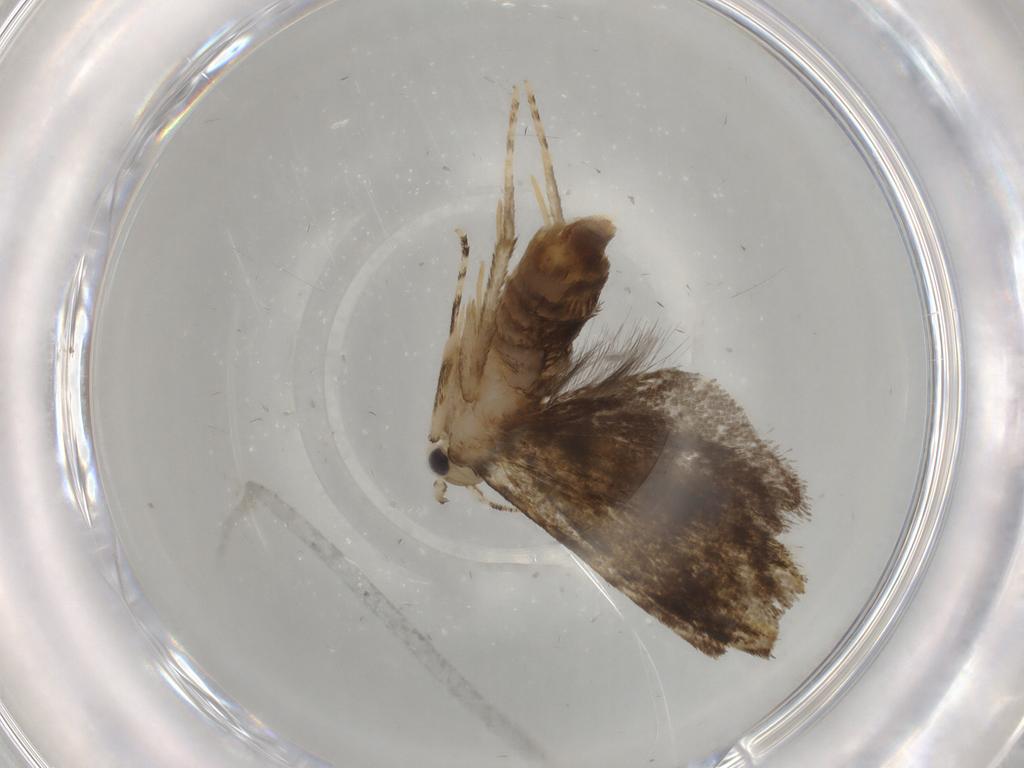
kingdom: Animalia
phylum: Arthropoda
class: Insecta
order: Lepidoptera
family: Tineidae
